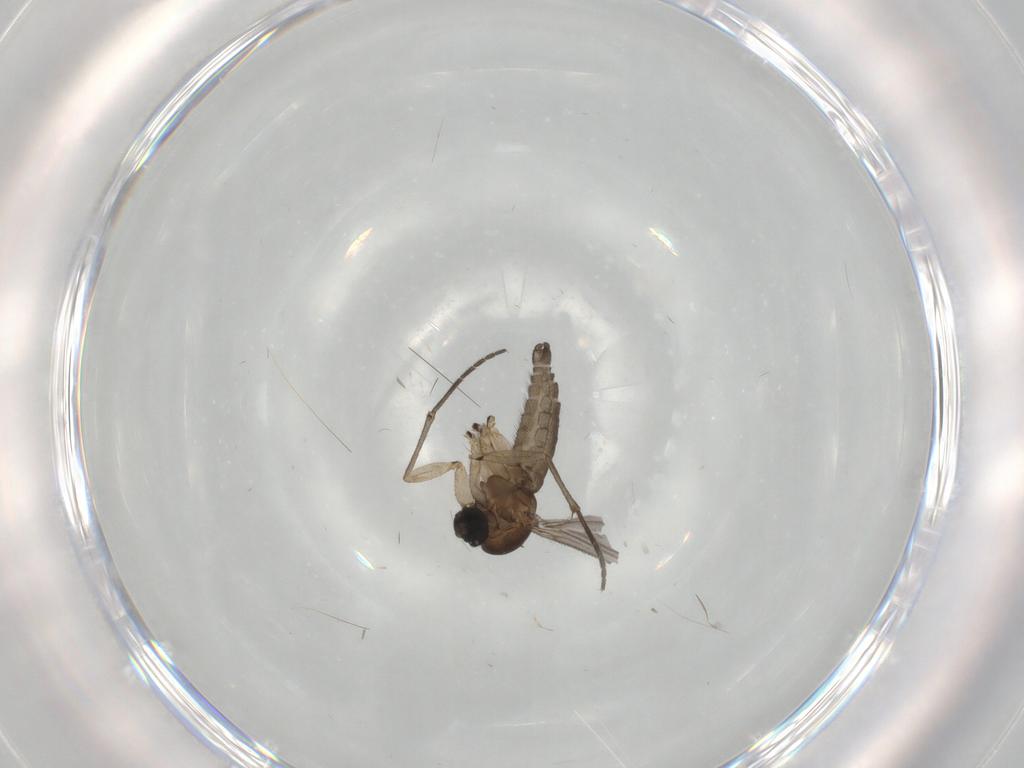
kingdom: Animalia
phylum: Arthropoda
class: Insecta
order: Diptera
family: Sciaridae
